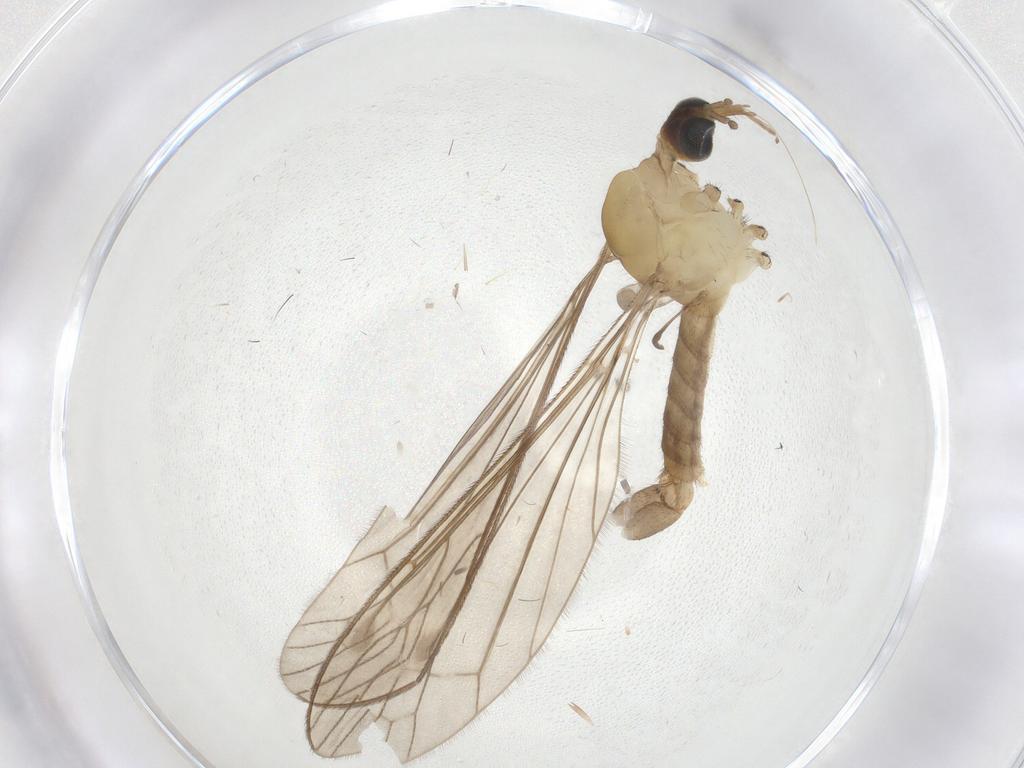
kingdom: Animalia
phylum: Arthropoda
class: Insecta
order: Diptera
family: Limoniidae
